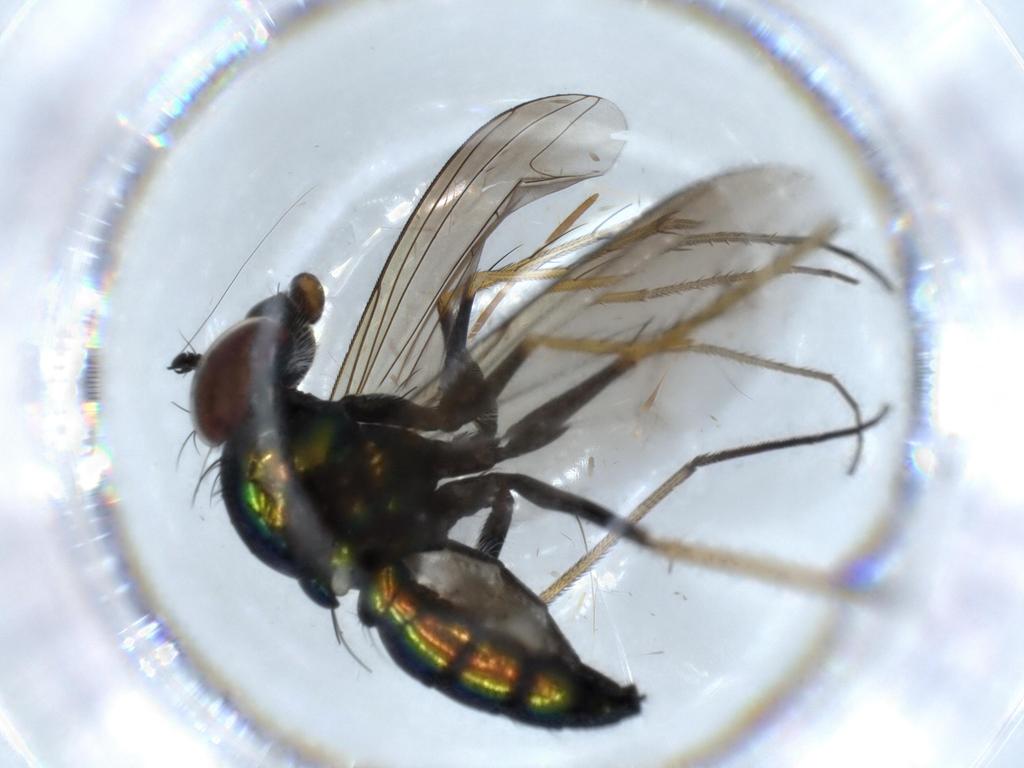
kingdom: Animalia
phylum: Arthropoda
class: Insecta
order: Diptera
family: Dolichopodidae
